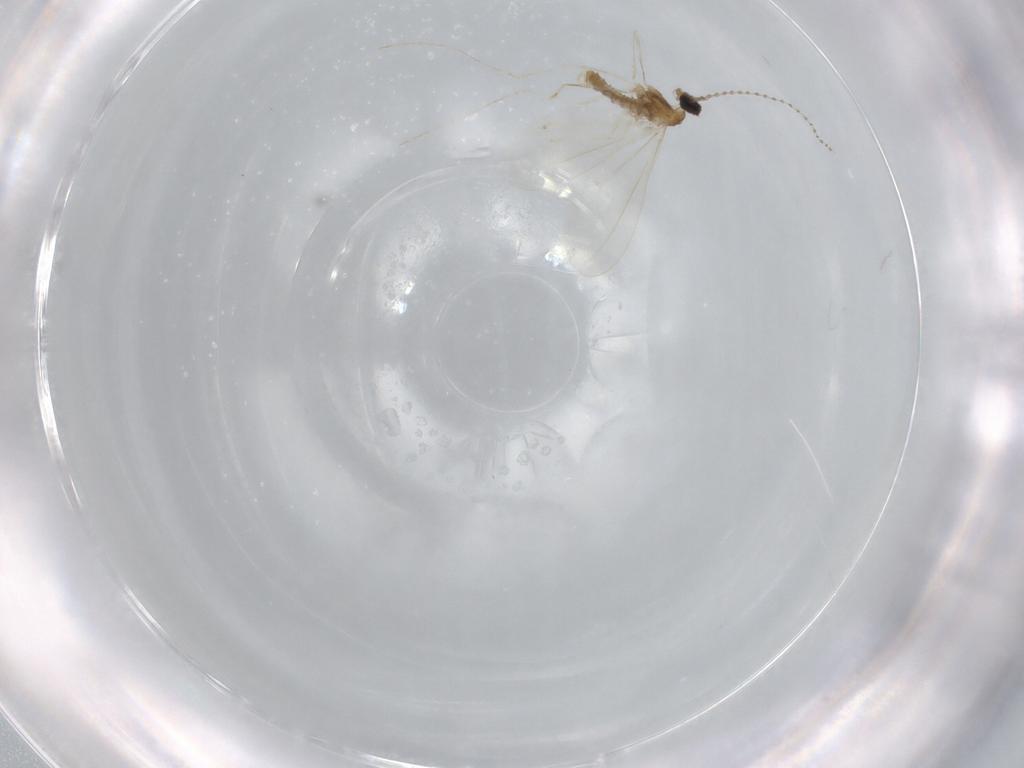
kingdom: Animalia
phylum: Arthropoda
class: Insecta
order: Diptera
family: Cecidomyiidae
